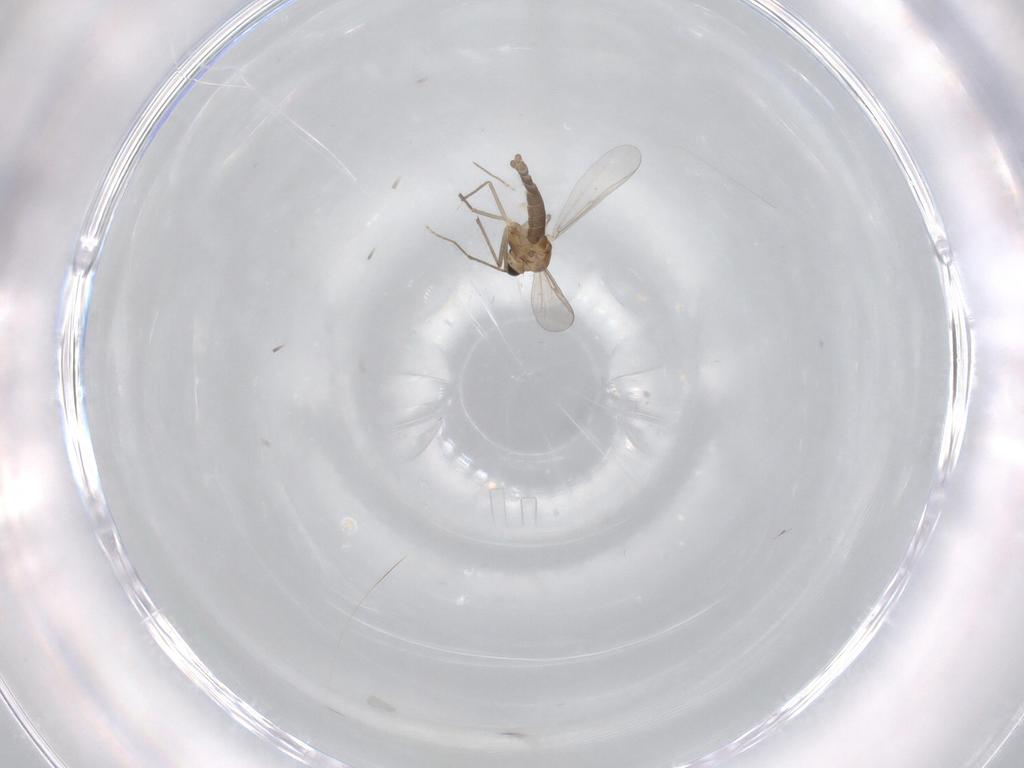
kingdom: Animalia
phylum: Arthropoda
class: Insecta
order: Diptera
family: Chironomidae
